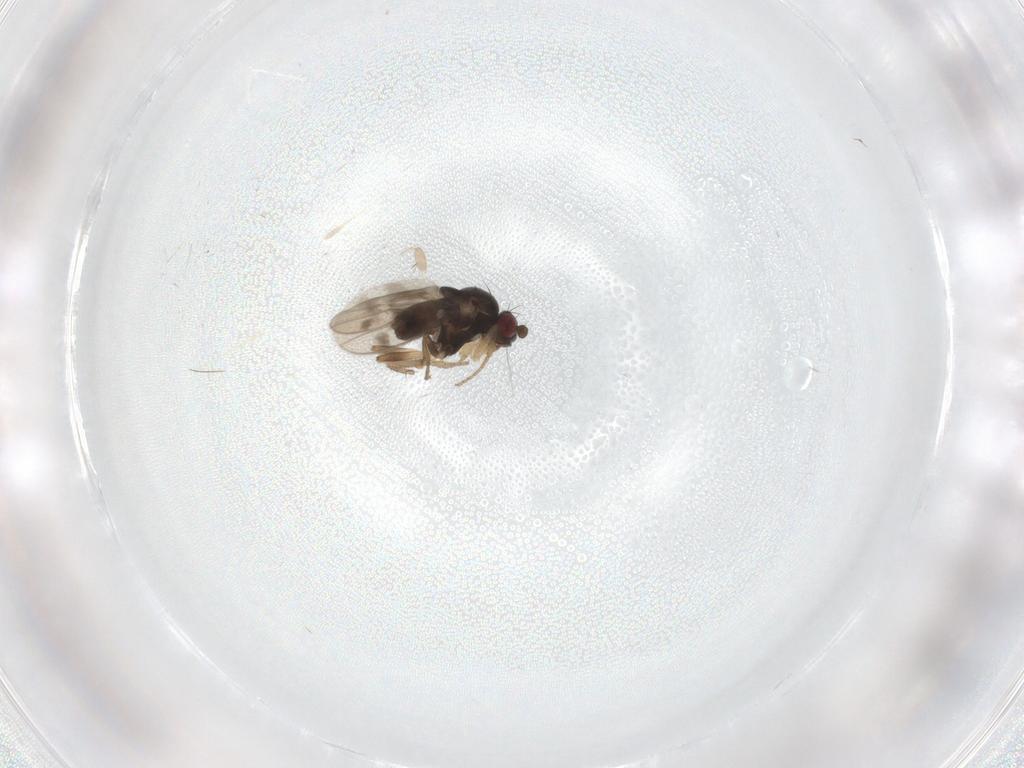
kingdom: Animalia
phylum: Arthropoda
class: Insecta
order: Diptera
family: Sphaeroceridae
